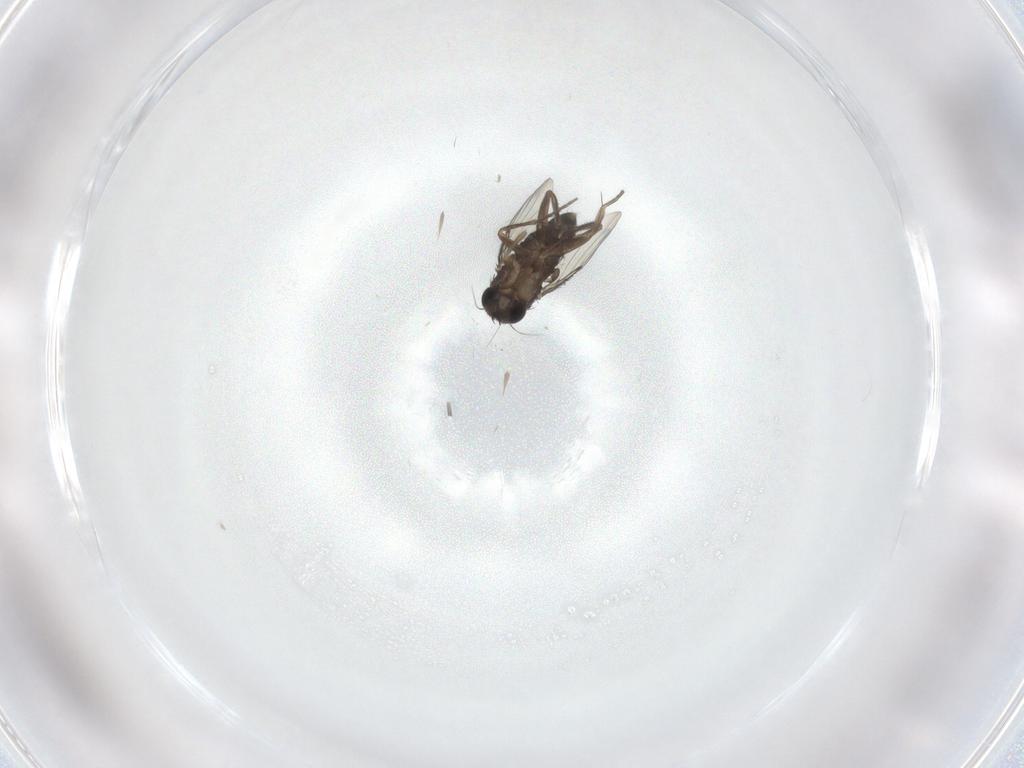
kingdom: Animalia
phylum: Arthropoda
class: Insecta
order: Diptera
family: Phoridae
